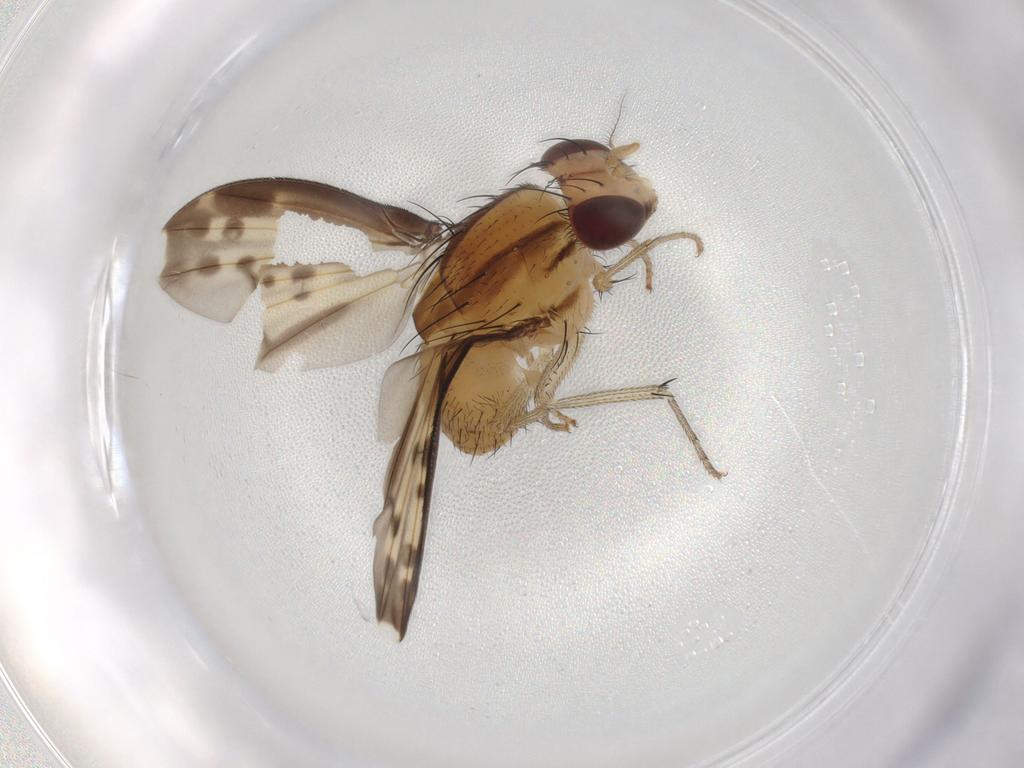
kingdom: Animalia
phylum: Arthropoda
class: Insecta
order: Diptera
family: Lauxaniidae
